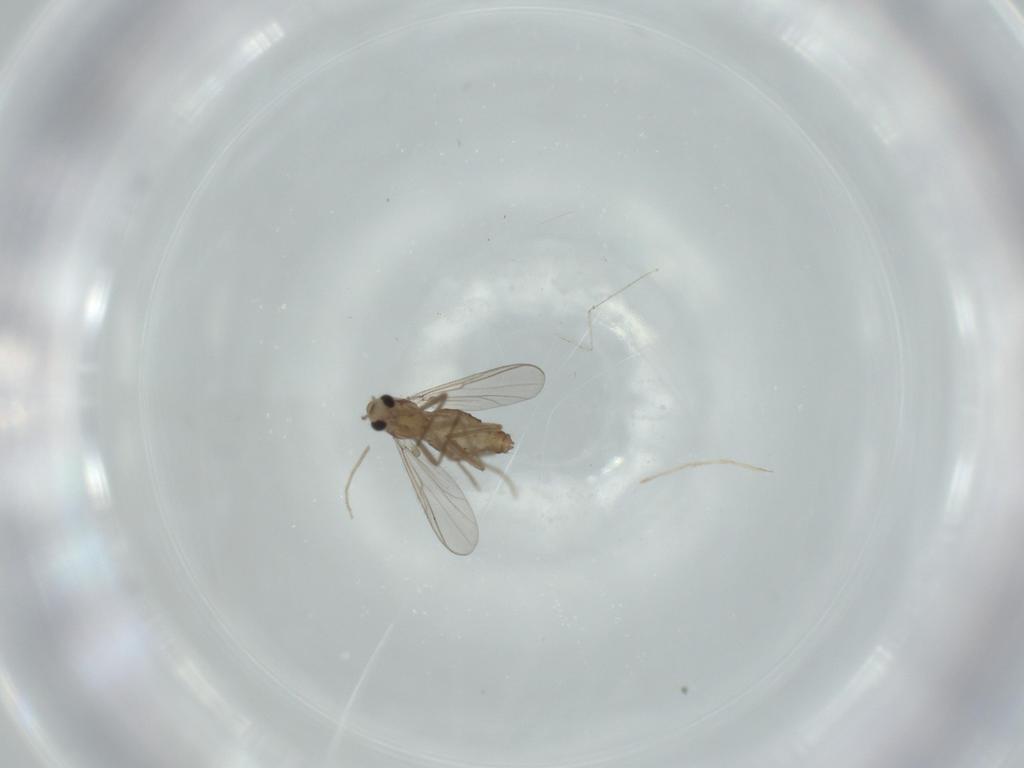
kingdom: Animalia
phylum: Arthropoda
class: Insecta
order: Diptera
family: Chironomidae
